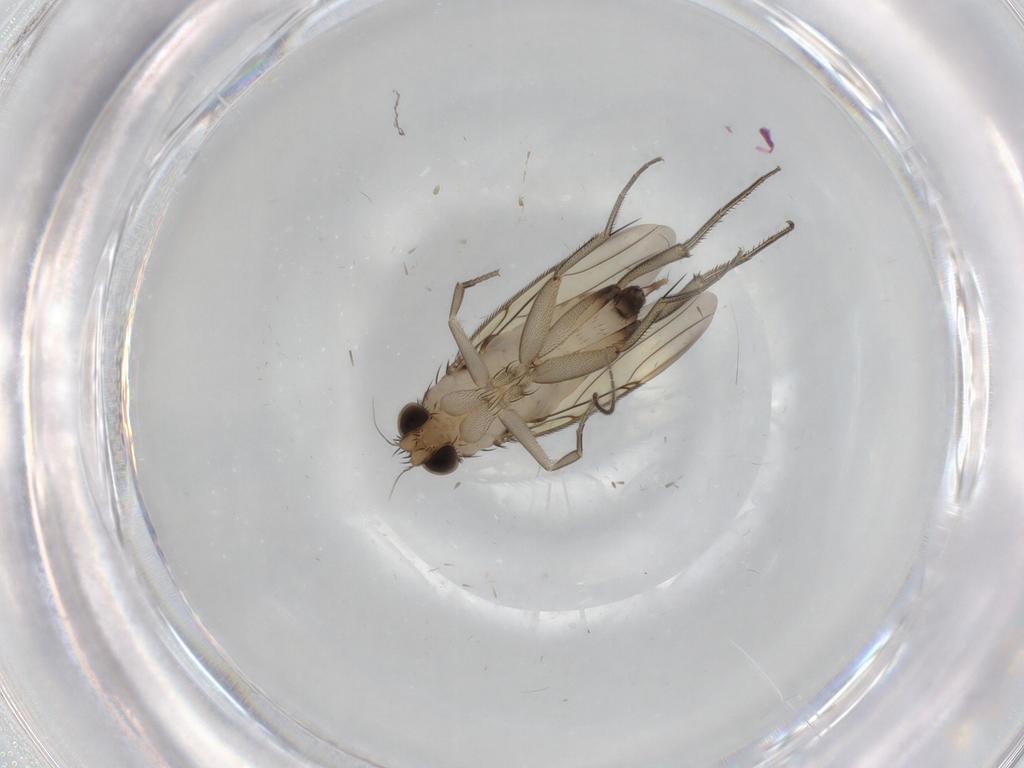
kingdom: Animalia
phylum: Arthropoda
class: Insecta
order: Diptera
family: Phoridae
